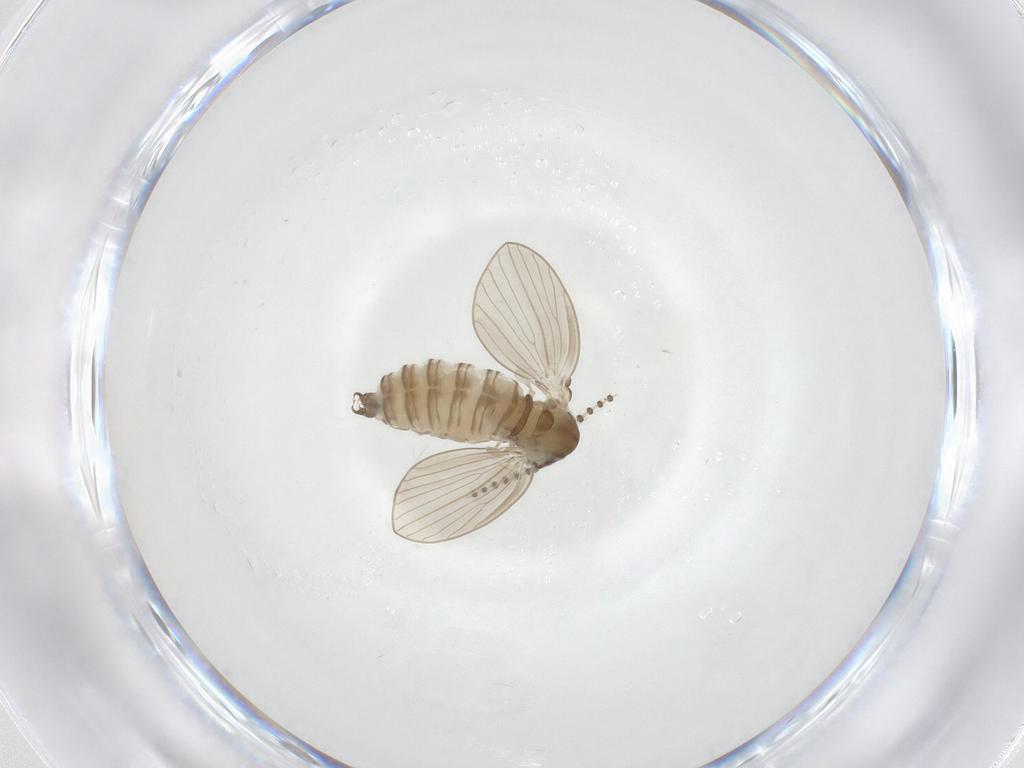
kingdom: Animalia
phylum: Arthropoda
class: Insecta
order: Diptera
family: Psychodidae
